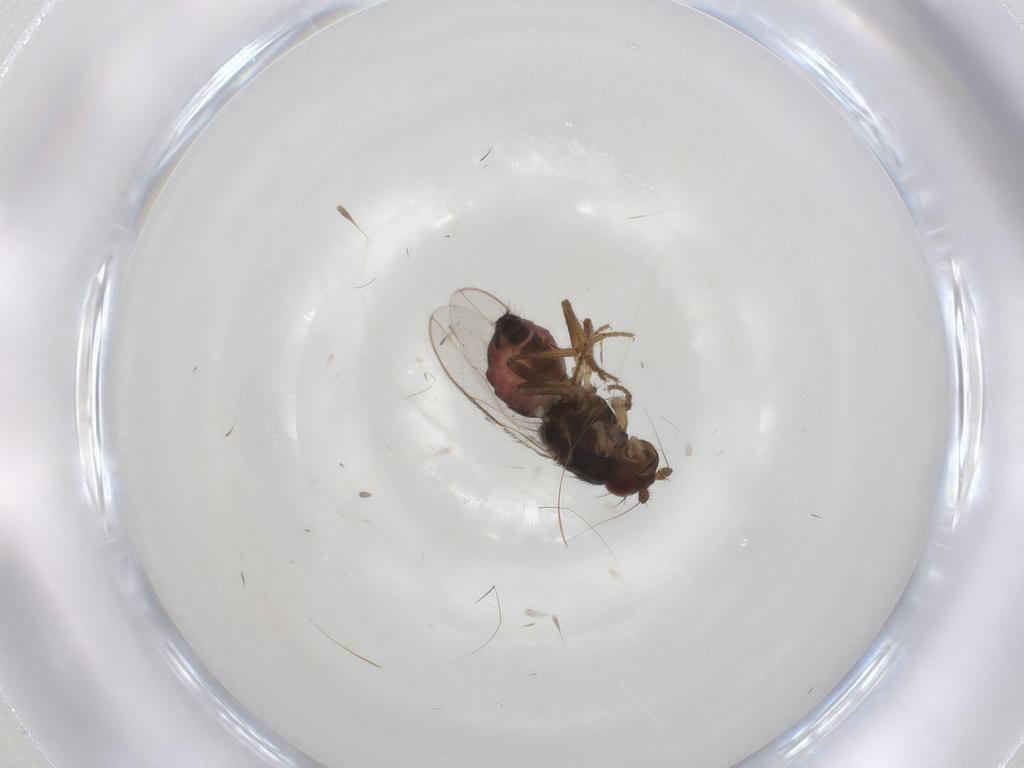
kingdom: Animalia
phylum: Arthropoda
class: Insecta
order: Diptera
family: Sphaeroceridae
